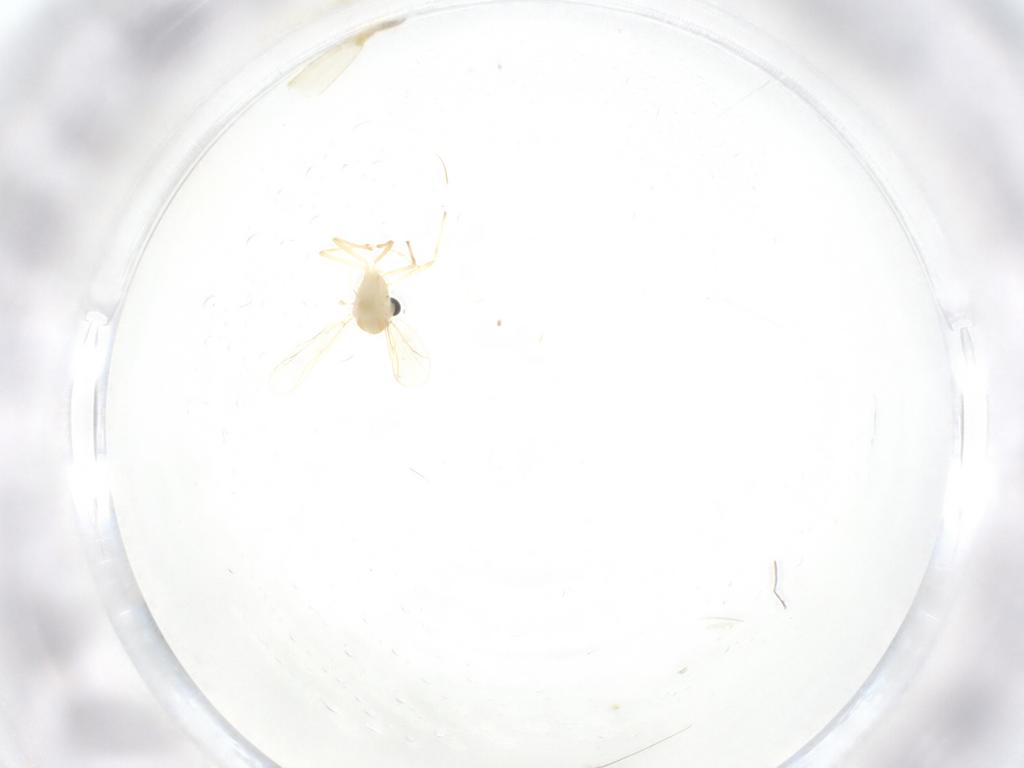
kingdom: Animalia
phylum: Arthropoda
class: Insecta
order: Diptera
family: Chironomidae
